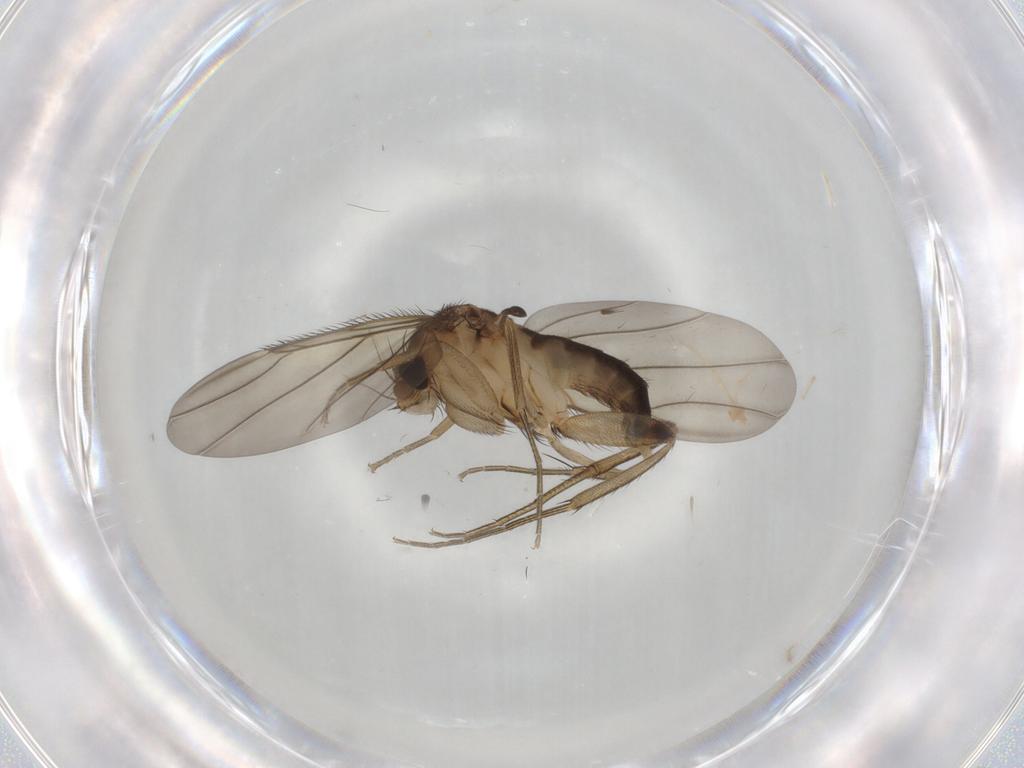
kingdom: Animalia
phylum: Arthropoda
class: Insecta
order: Diptera
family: Phoridae
